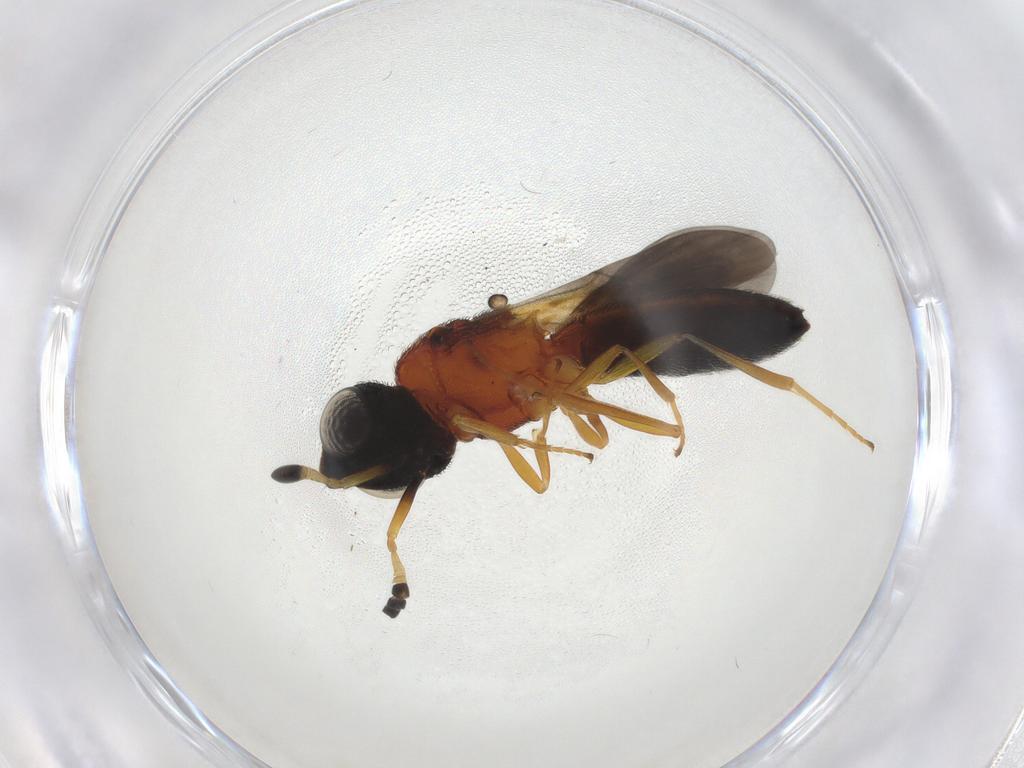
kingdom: Animalia
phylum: Arthropoda
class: Insecta
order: Hymenoptera
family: Scelionidae
